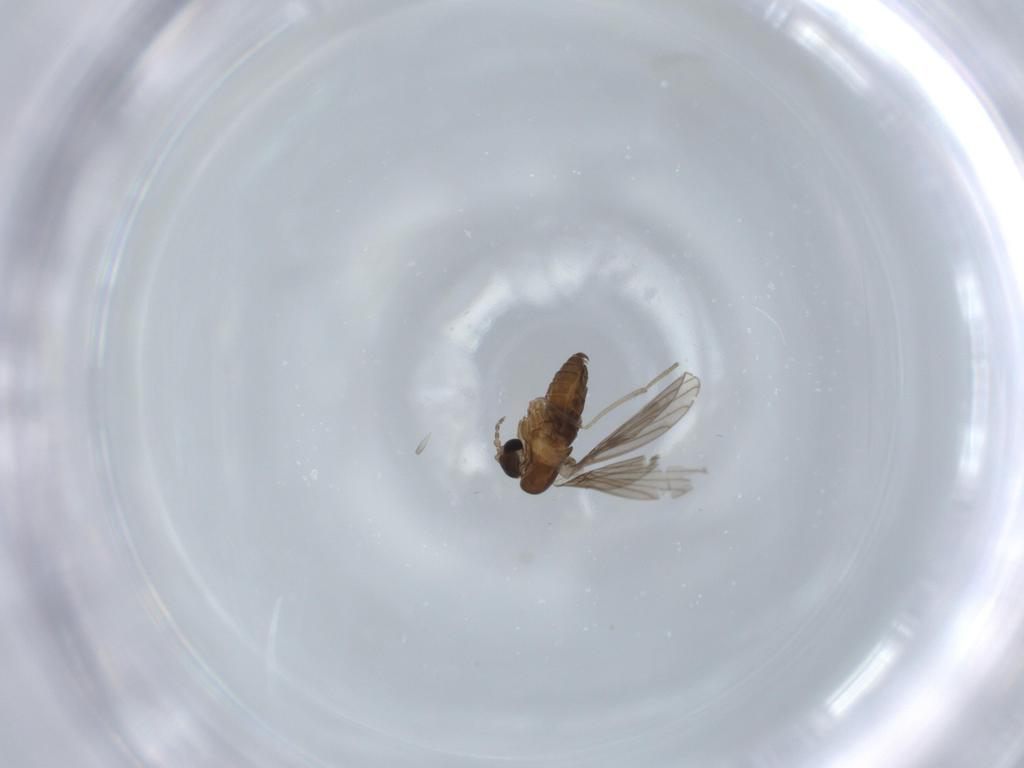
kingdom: Animalia
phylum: Arthropoda
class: Insecta
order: Diptera
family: Psychodidae
